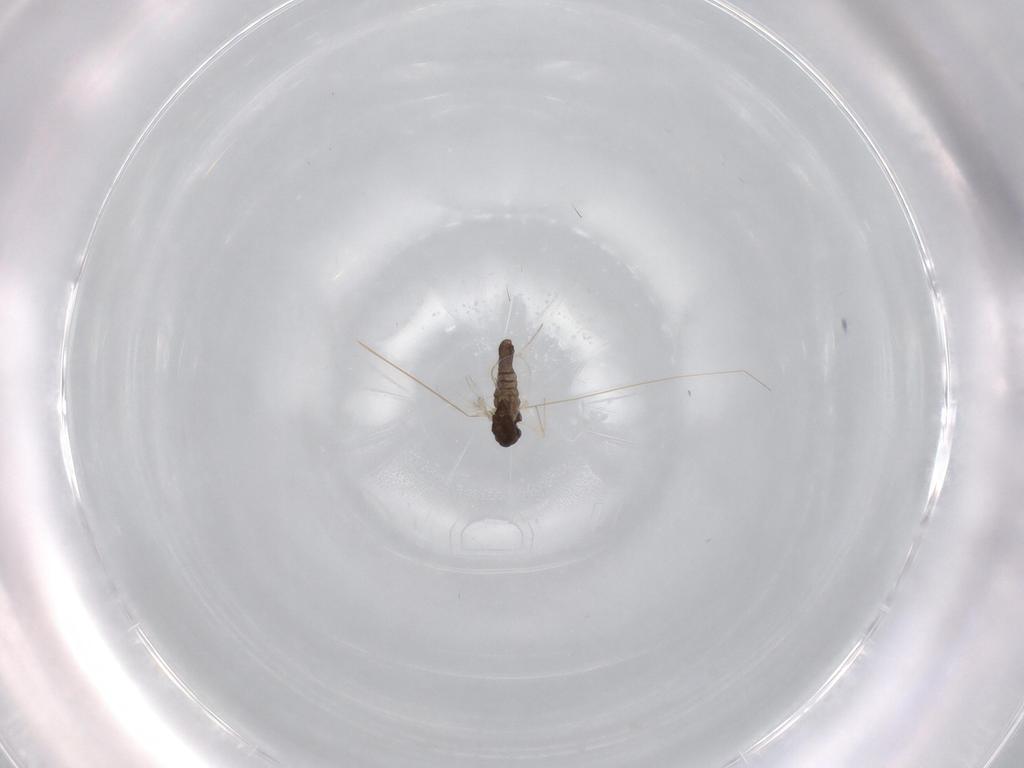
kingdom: Animalia
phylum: Arthropoda
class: Insecta
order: Diptera
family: Chironomidae
